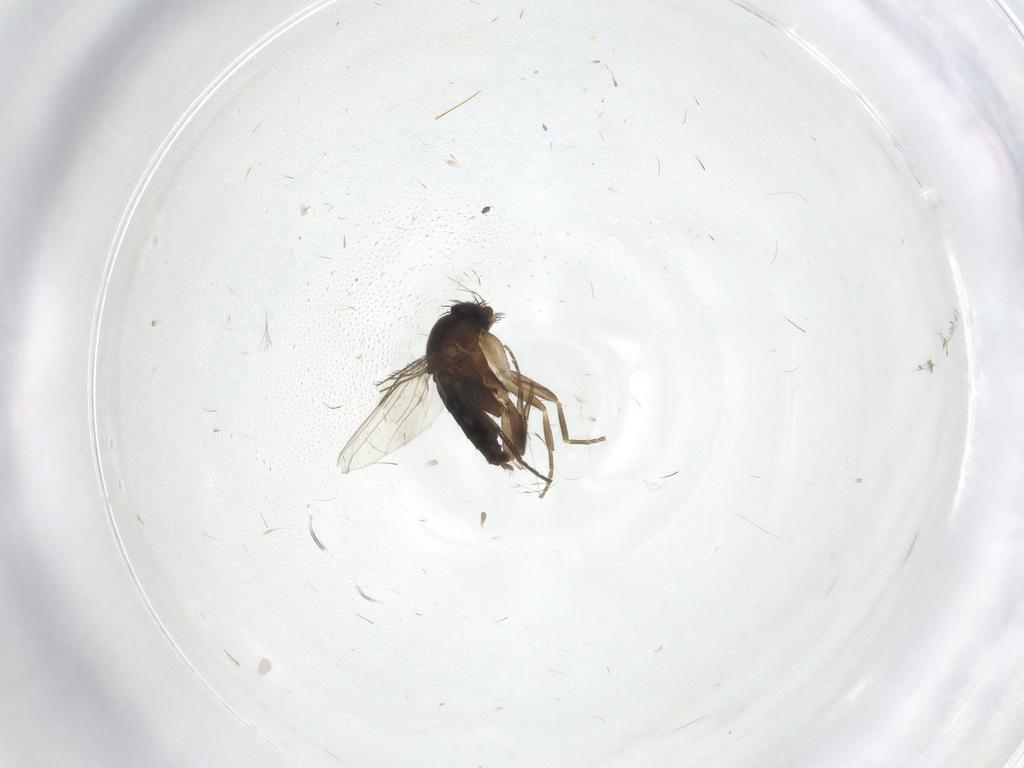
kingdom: Animalia
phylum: Arthropoda
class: Insecta
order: Diptera
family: Phoridae
